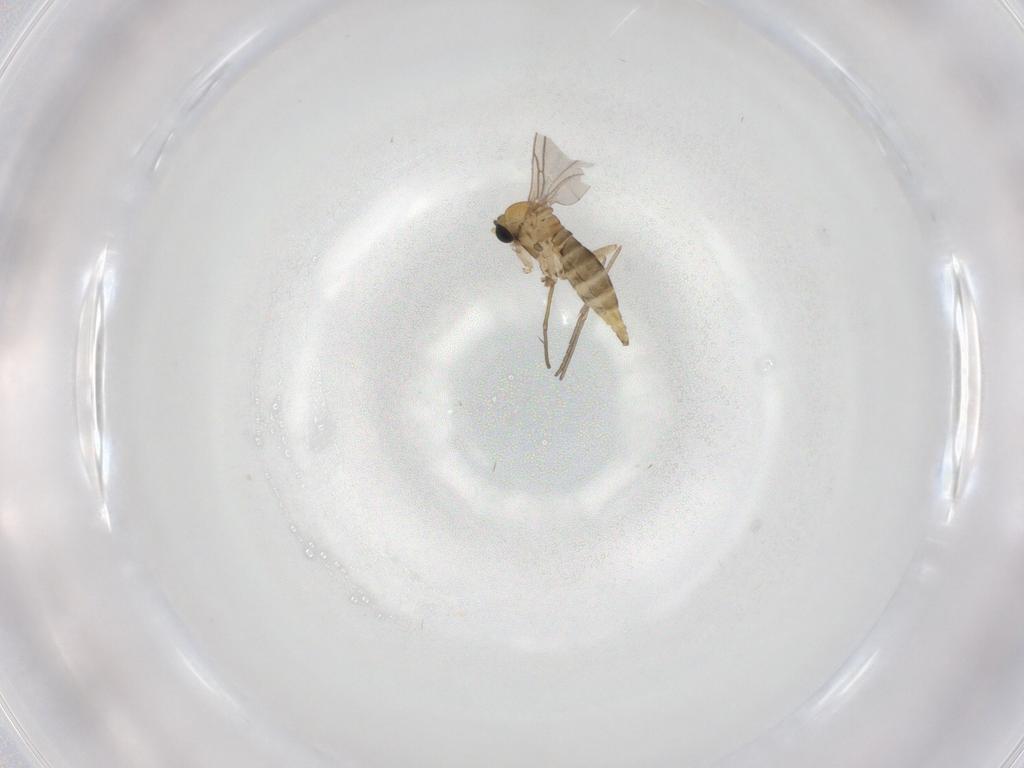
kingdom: Animalia
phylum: Arthropoda
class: Insecta
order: Diptera
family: Sciaridae
